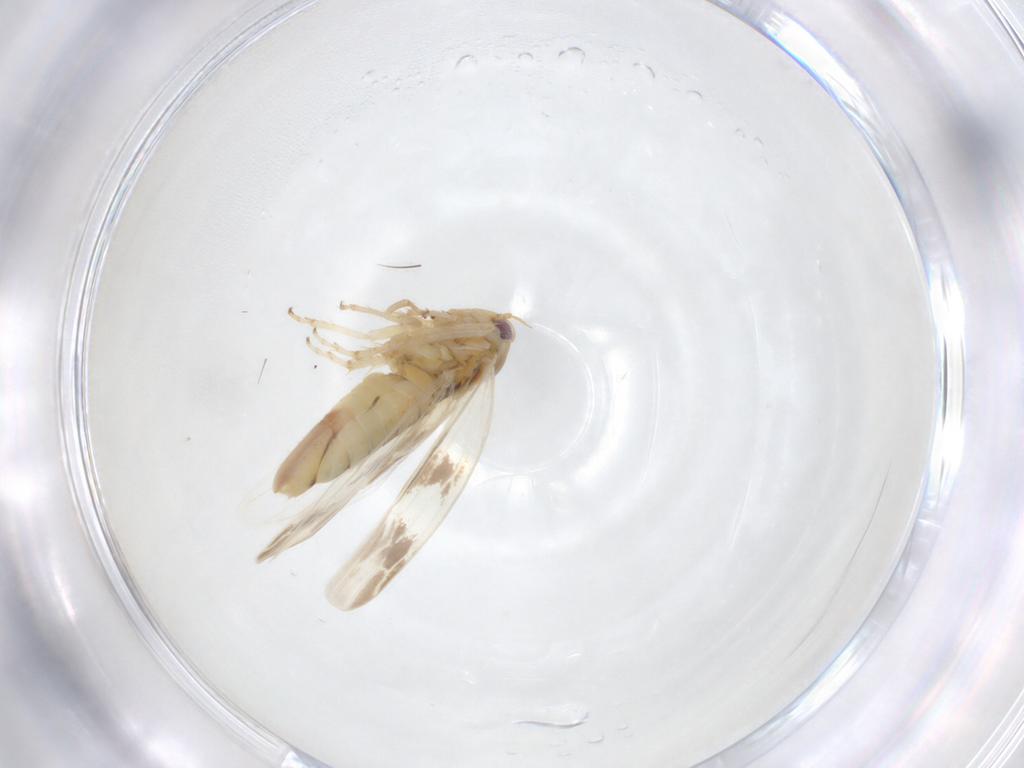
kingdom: Animalia
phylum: Arthropoda
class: Insecta
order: Hemiptera
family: Cicadellidae
